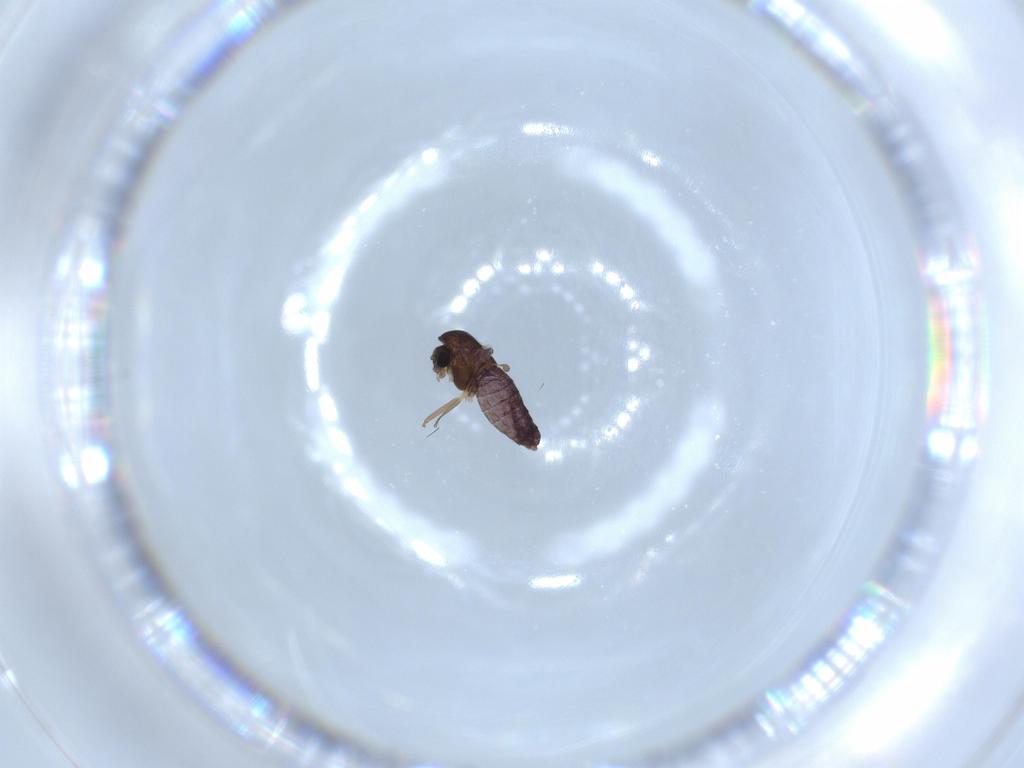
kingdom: Animalia
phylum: Arthropoda
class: Insecta
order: Diptera
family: Chironomidae
